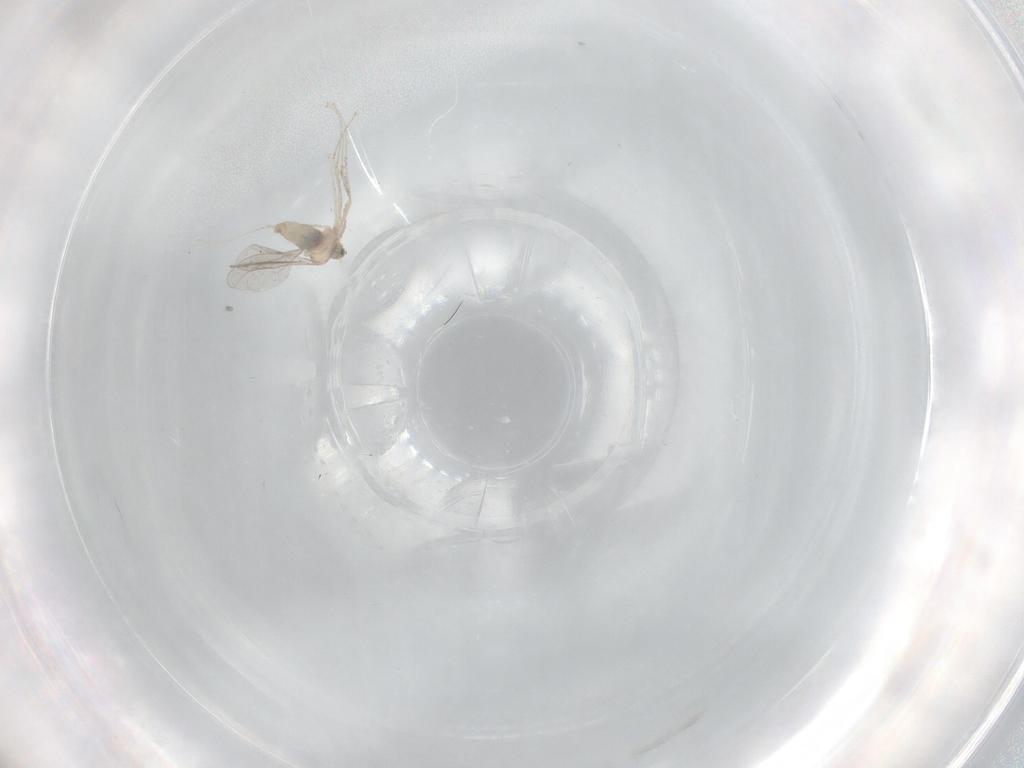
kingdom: Animalia
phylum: Arthropoda
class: Insecta
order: Diptera
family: Cecidomyiidae
